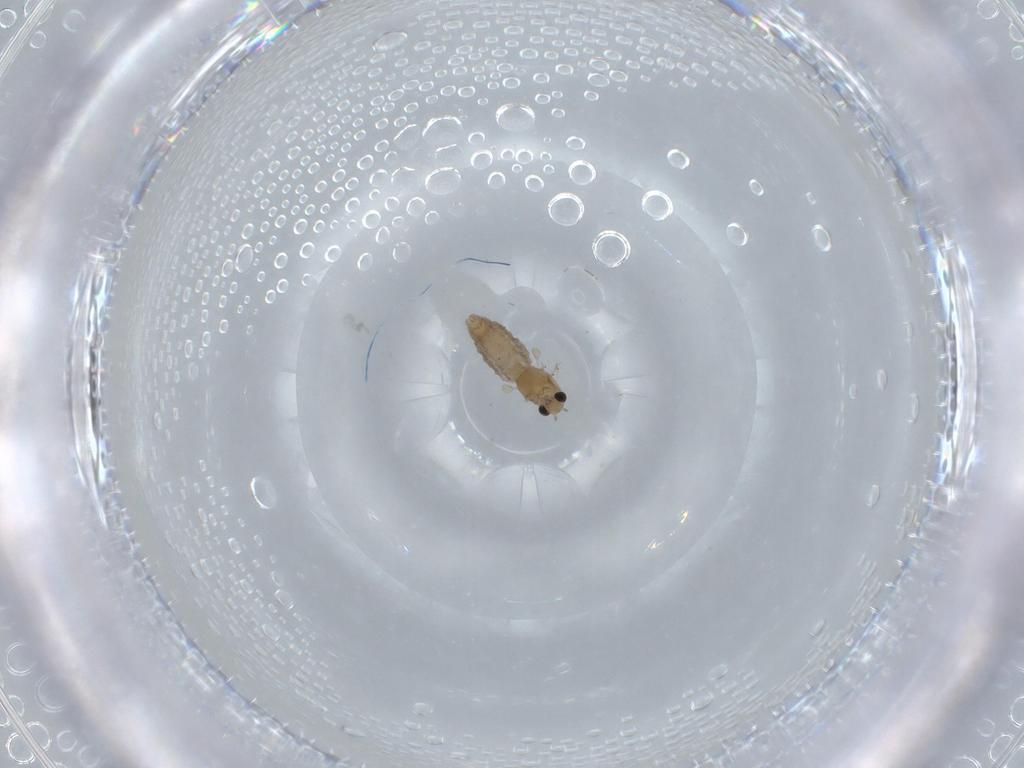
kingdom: Animalia
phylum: Arthropoda
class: Insecta
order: Diptera
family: Chironomidae
